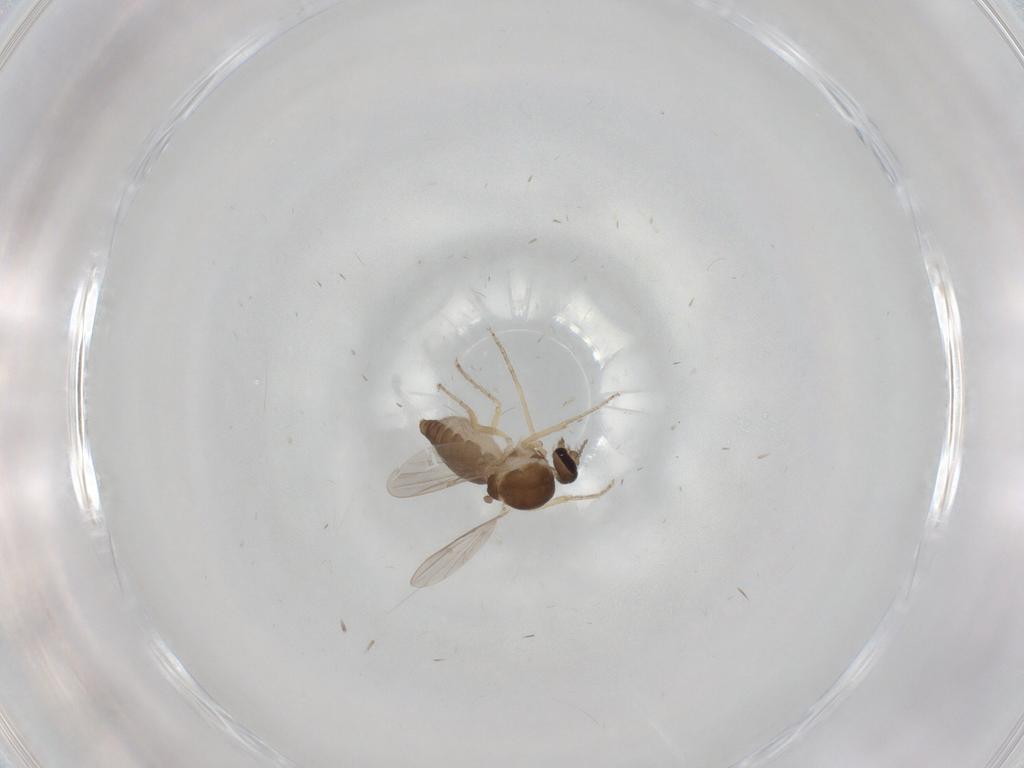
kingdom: Animalia
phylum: Arthropoda
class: Insecta
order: Diptera
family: Ceratopogonidae
